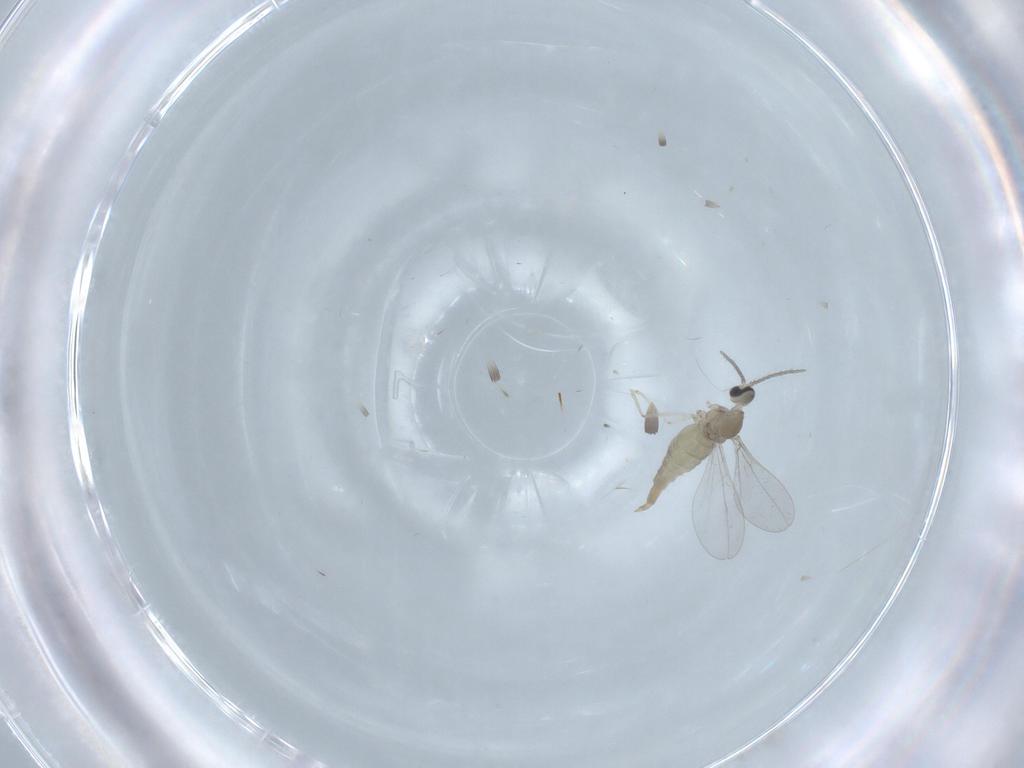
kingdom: Animalia
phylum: Arthropoda
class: Insecta
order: Diptera
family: Cecidomyiidae
